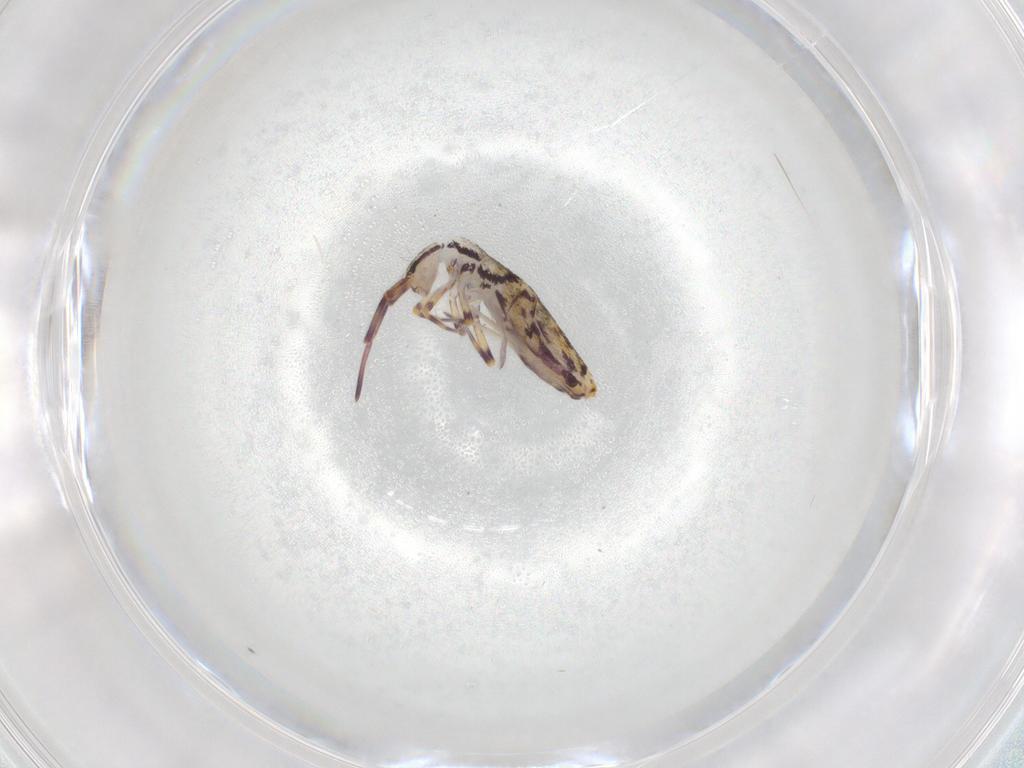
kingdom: Animalia
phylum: Arthropoda
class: Collembola
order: Entomobryomorpha
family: Entomobryidae
